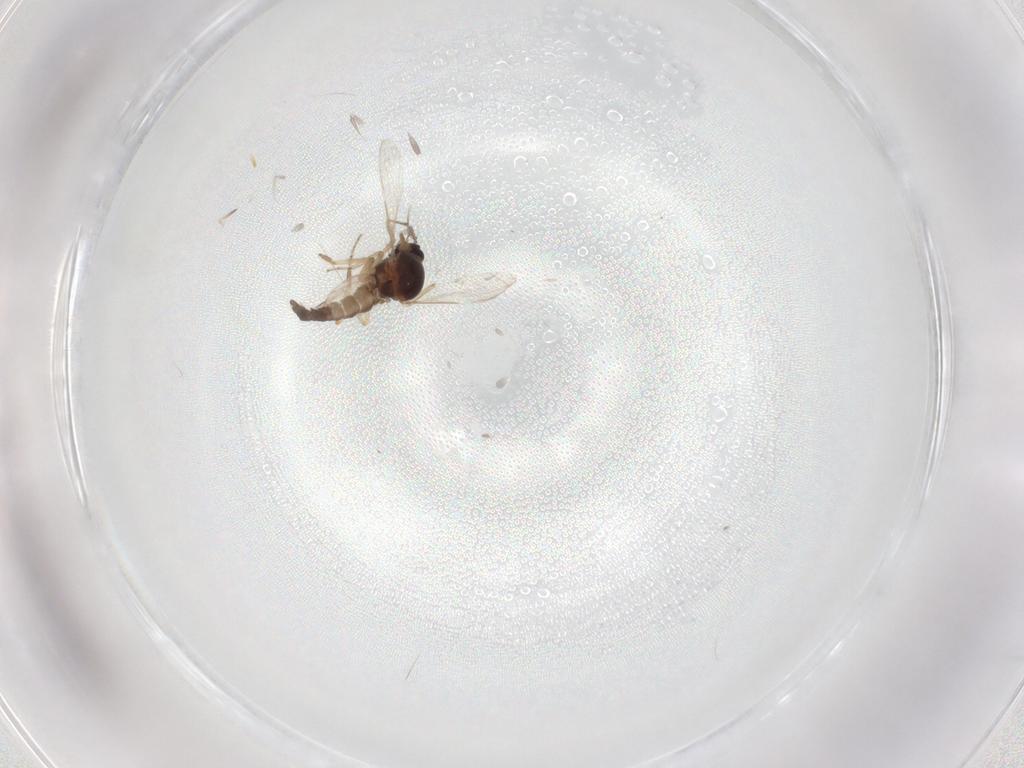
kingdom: Animalia
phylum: Arthropoda
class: Insecta
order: Diptera
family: Ceratopogonidae
